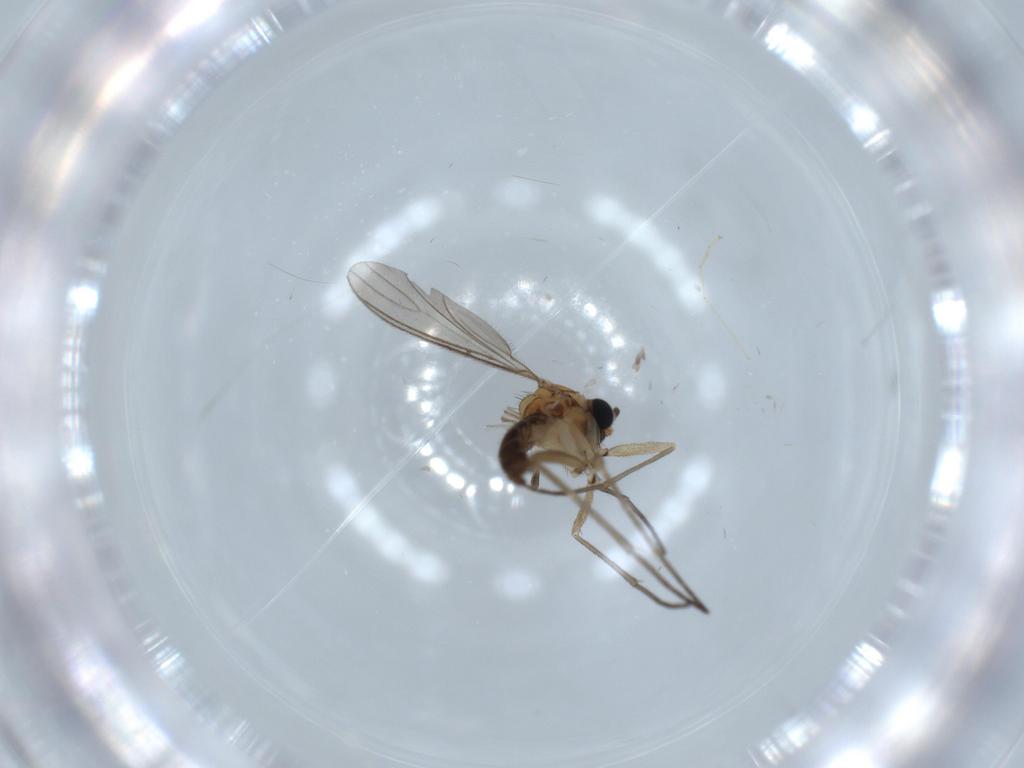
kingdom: Animalia
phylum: Arthropoda
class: Insecta
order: Diptera
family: Sciaridae
